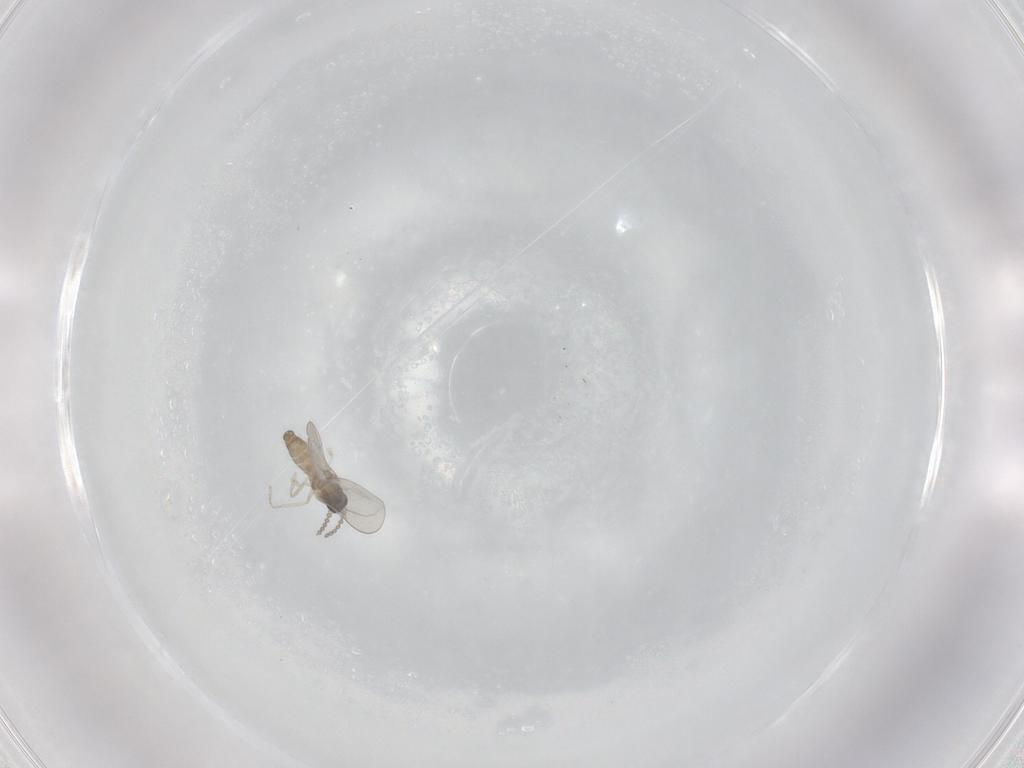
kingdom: Animalia
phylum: Arthropoda
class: Insecta
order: Diptera
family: Cecidomyiidae
